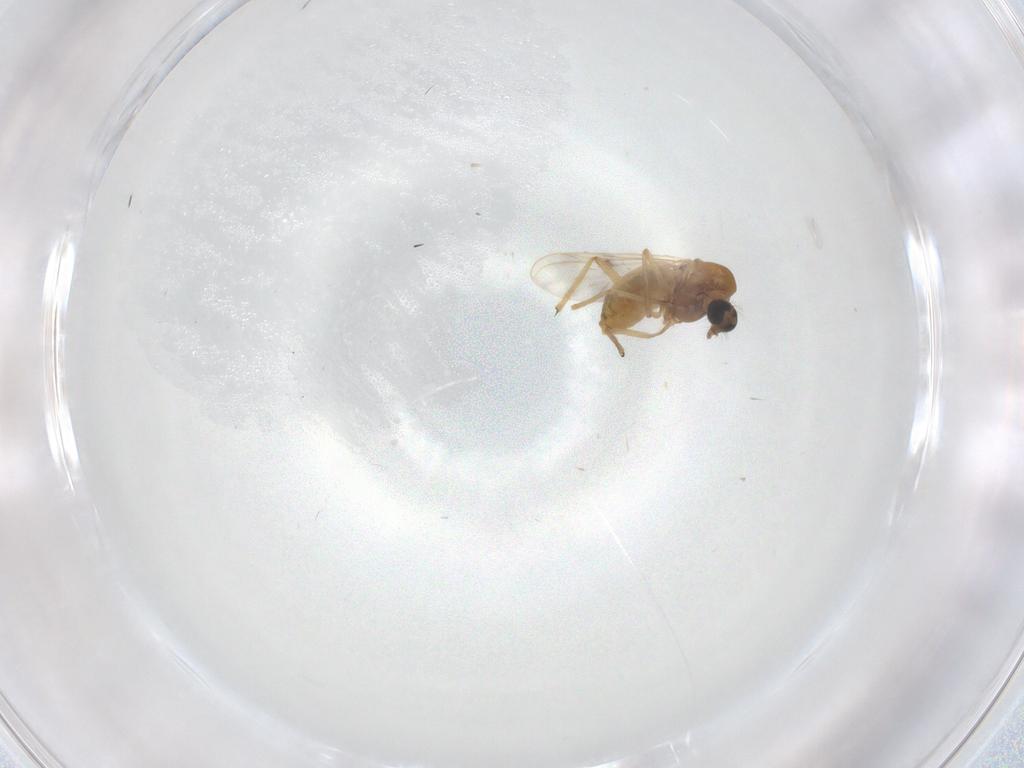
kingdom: Animalia
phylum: Arthropoda
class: Insecta
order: Diptera
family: Chironomidae
